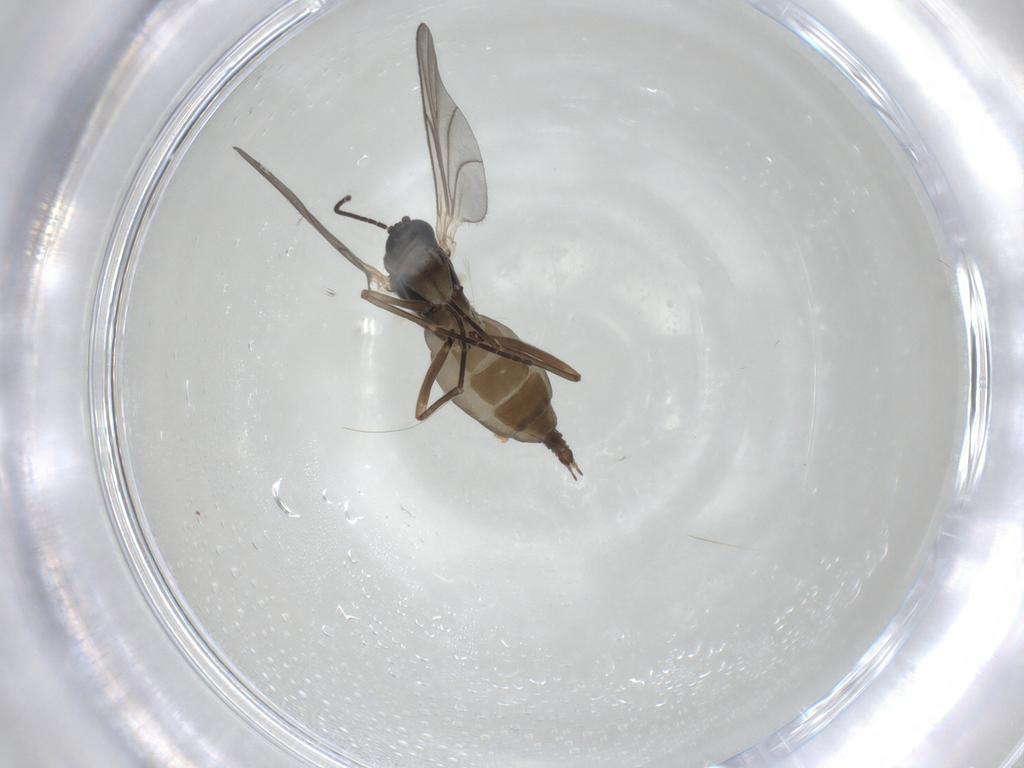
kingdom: Animalia
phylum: Arthropoda
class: Insecta
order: Diptera
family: Sciaridae
